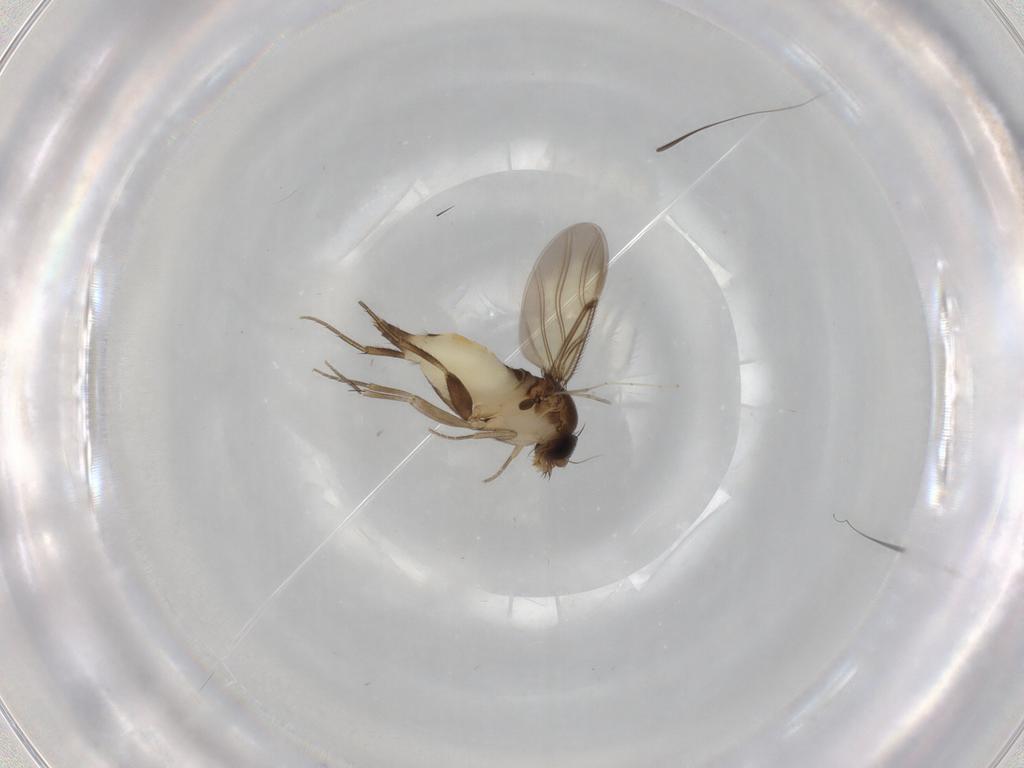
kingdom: Animalia
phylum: Arthropoda
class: Insecta
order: Diptera
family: Phoridae
